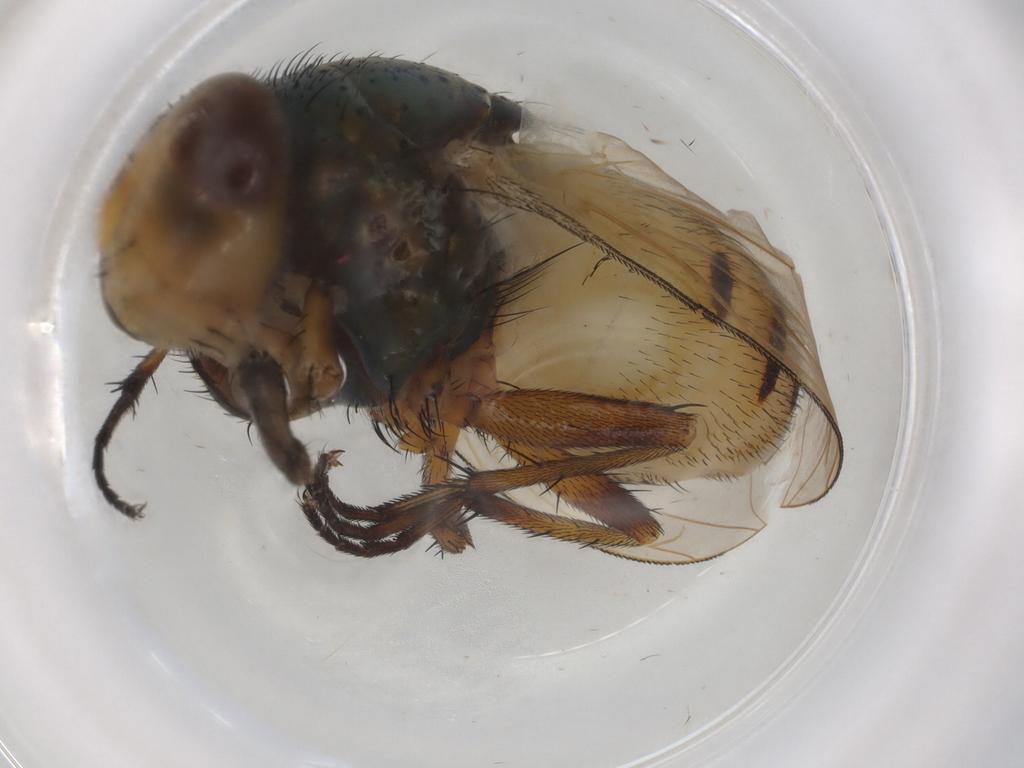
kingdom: Animalia
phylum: Arthropoda
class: Insecta
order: Diptera
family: Calliphoridae
